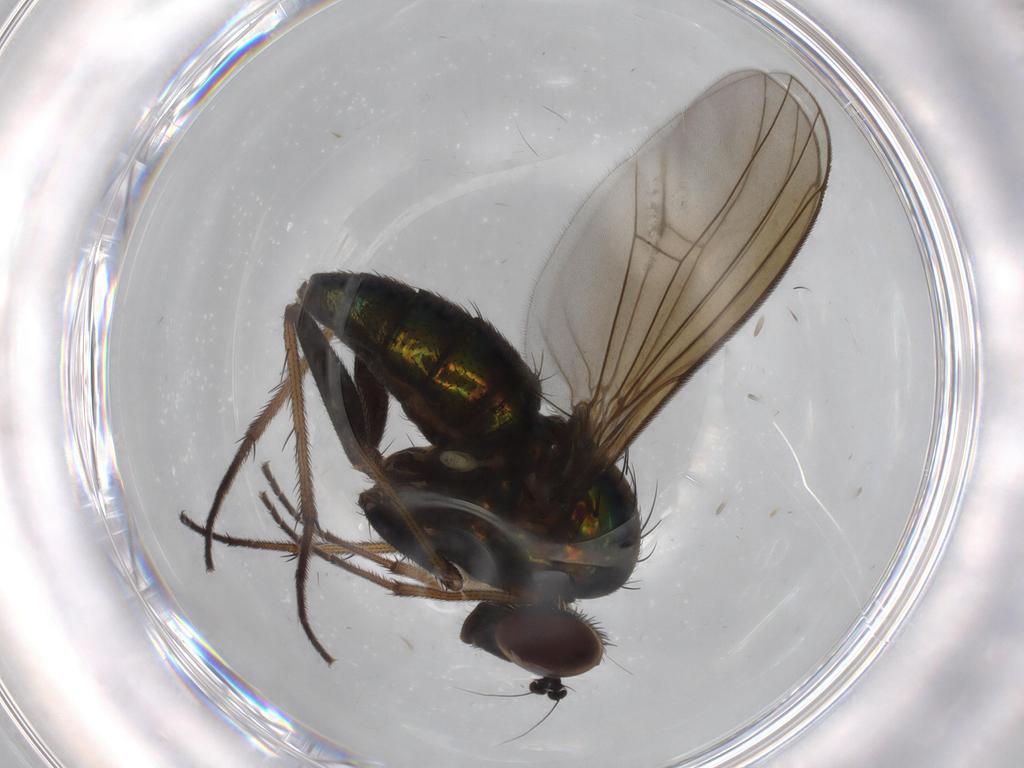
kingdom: Animalia
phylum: Arthropoda
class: Insecta
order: Diptera
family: Dolichopodidae
